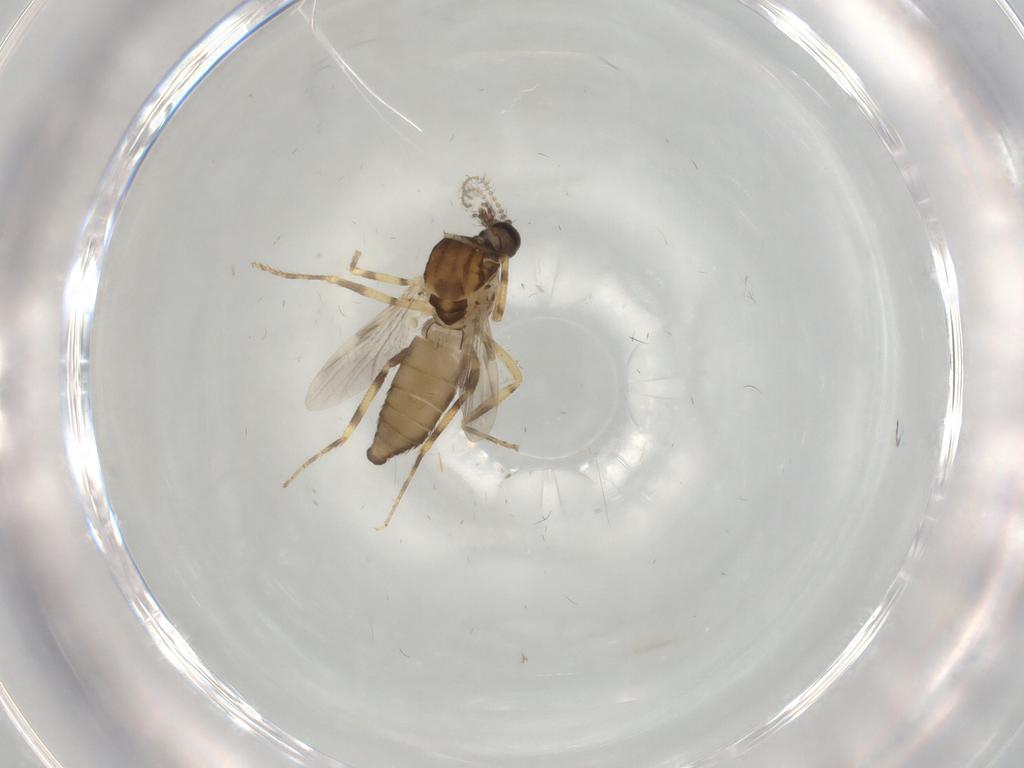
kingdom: Animalia
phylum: Arthropoda
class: Insecta
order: Diptera
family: Ceratopogonidae
